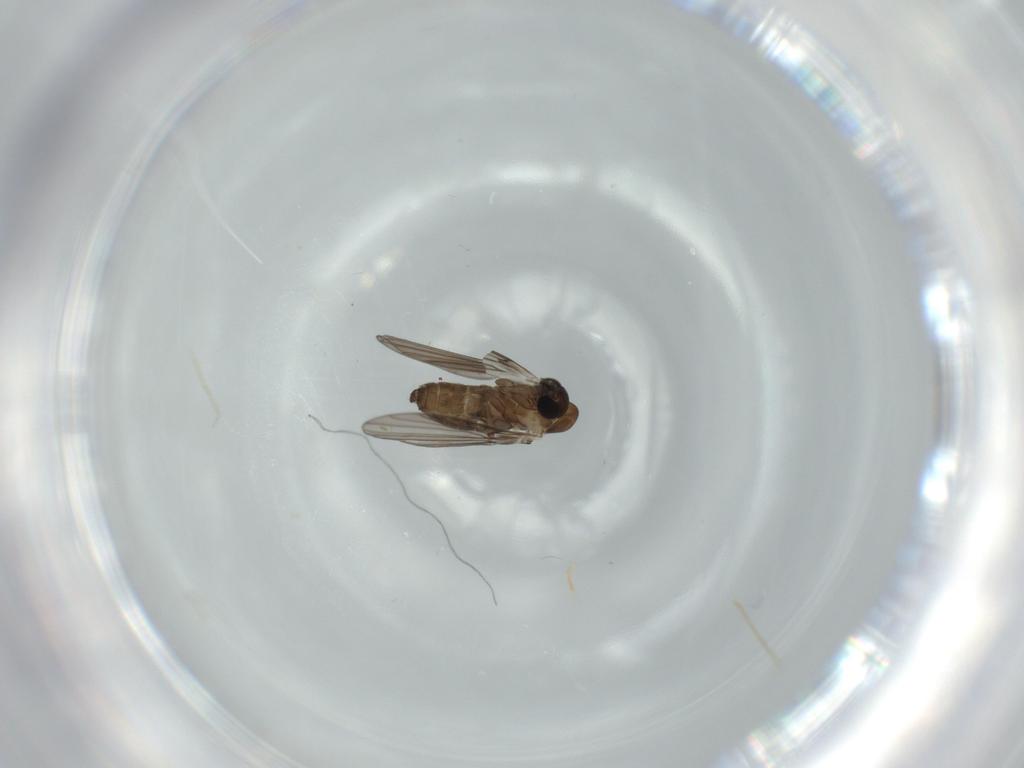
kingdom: Animalia
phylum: Arthropoda
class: Insecta
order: Diptera
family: Psychodidae
